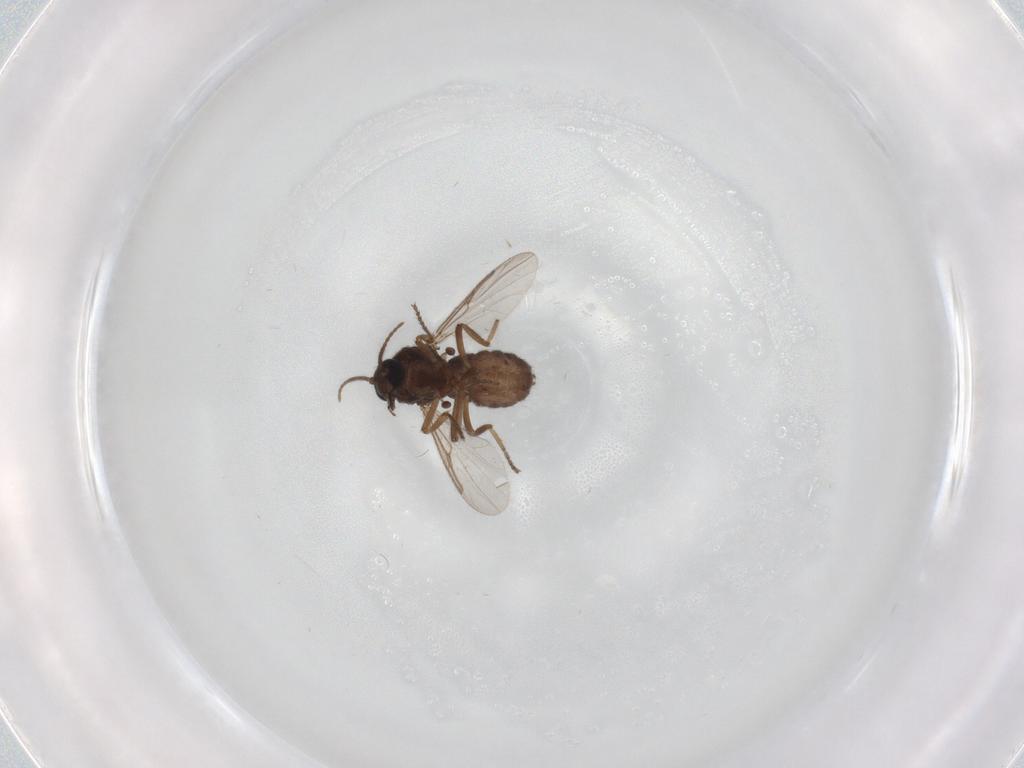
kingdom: Animalia
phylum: Arthropoda
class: Insecta
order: Diptera
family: Ceratopogonidae
